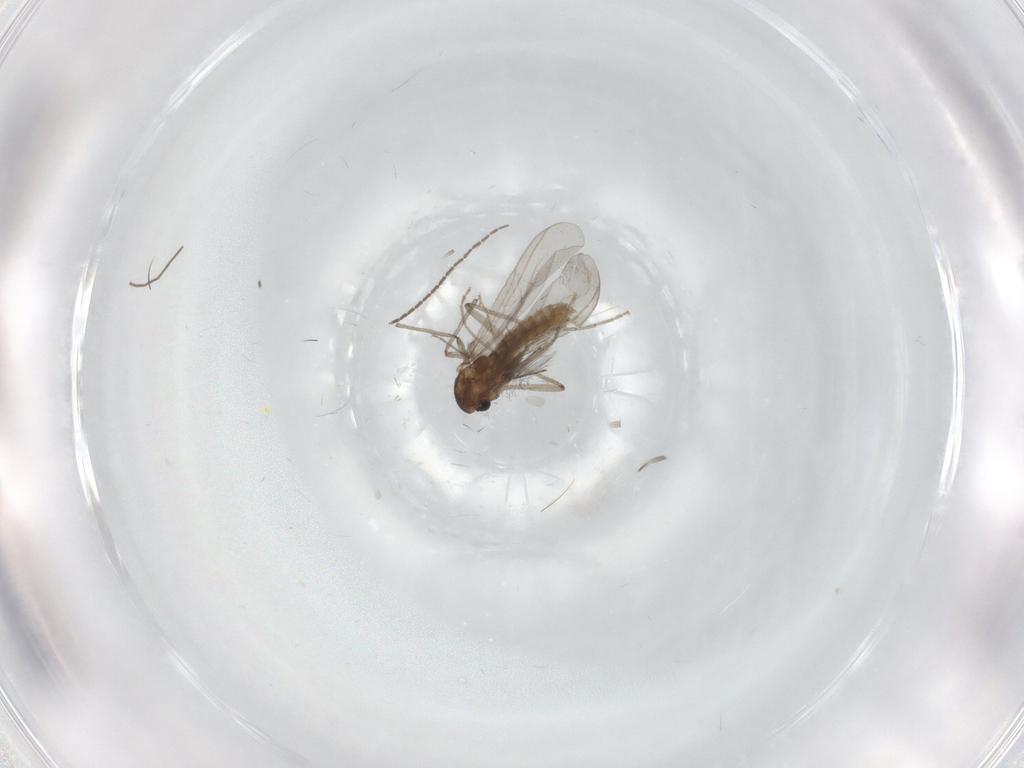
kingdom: Animalia
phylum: Arthropoda
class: Insecta
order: Diptera
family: Chironomidae
